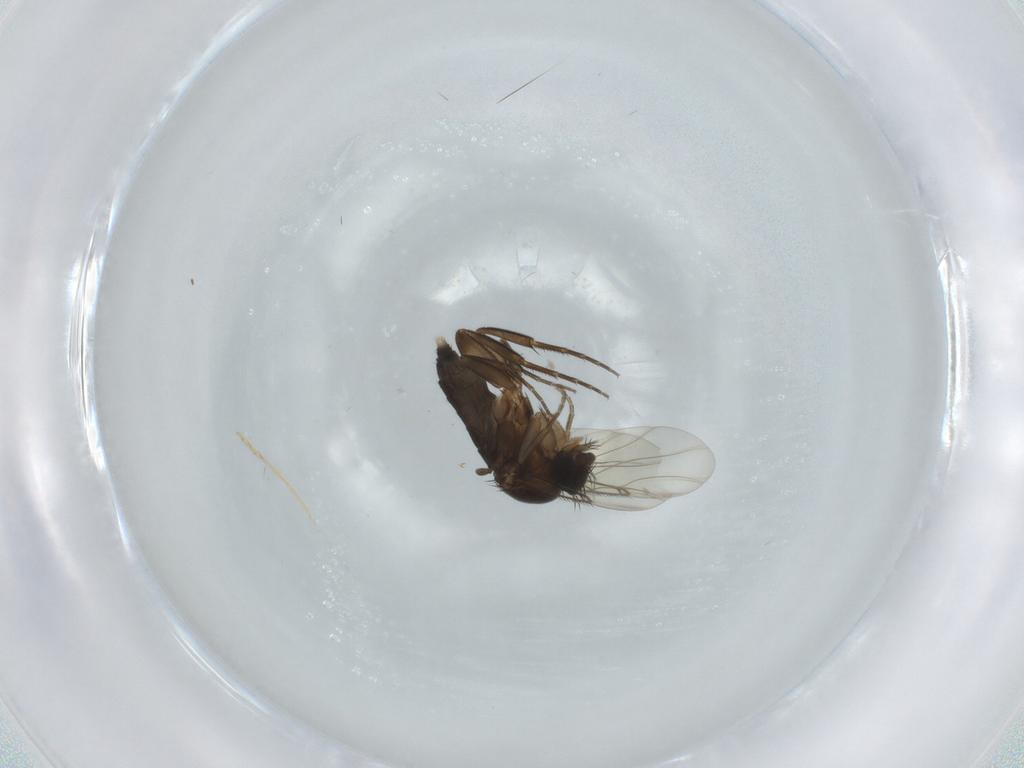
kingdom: Animalia
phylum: Arthropoda
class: Insecta
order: Diptera
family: Phoridae
